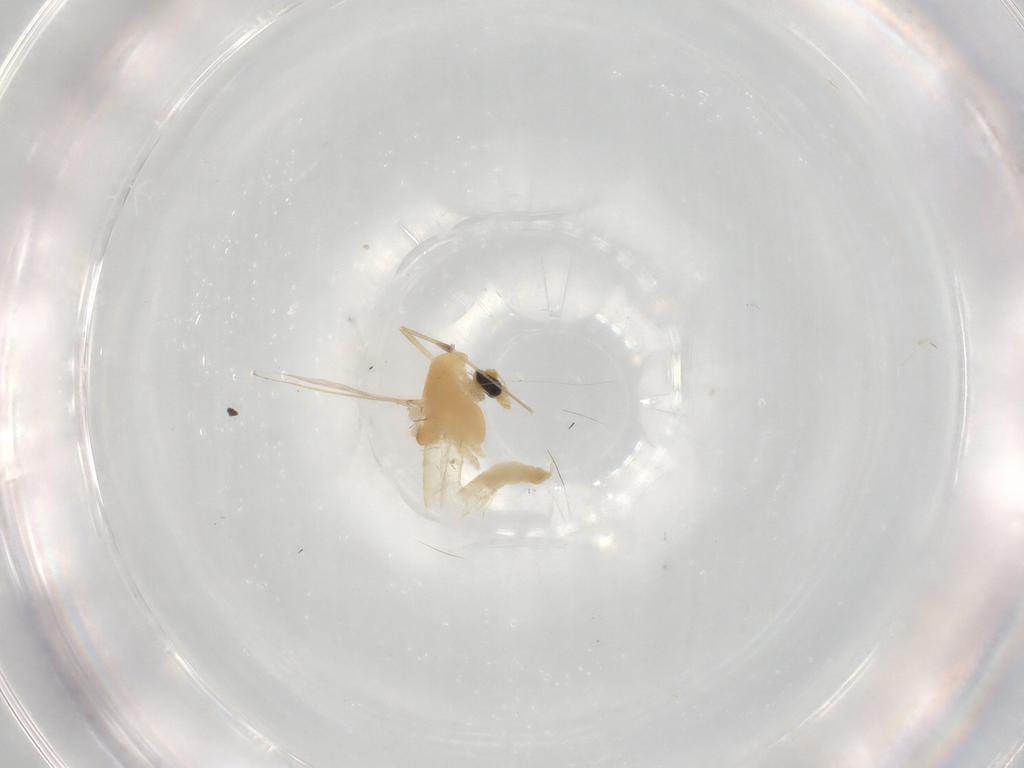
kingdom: Animalia
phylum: Arthropoda
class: Insecta
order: Diptera
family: Chironomidae
